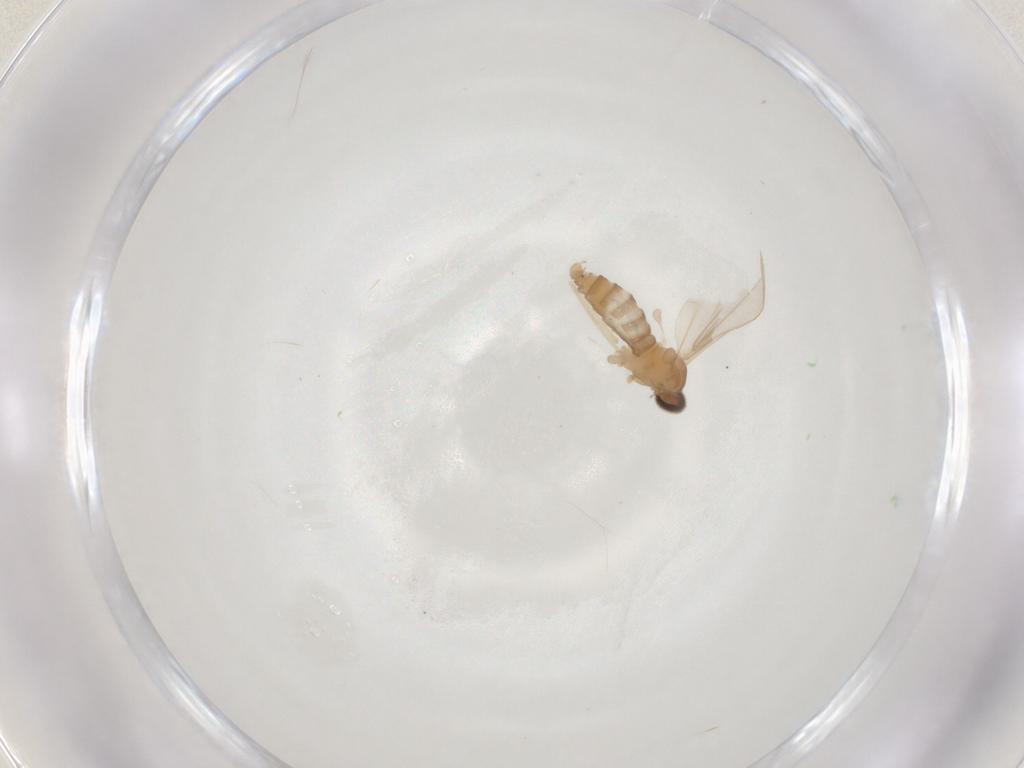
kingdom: Animalia
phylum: Arthropoda
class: Insecta
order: Diptera
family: Cecidomyiidae
